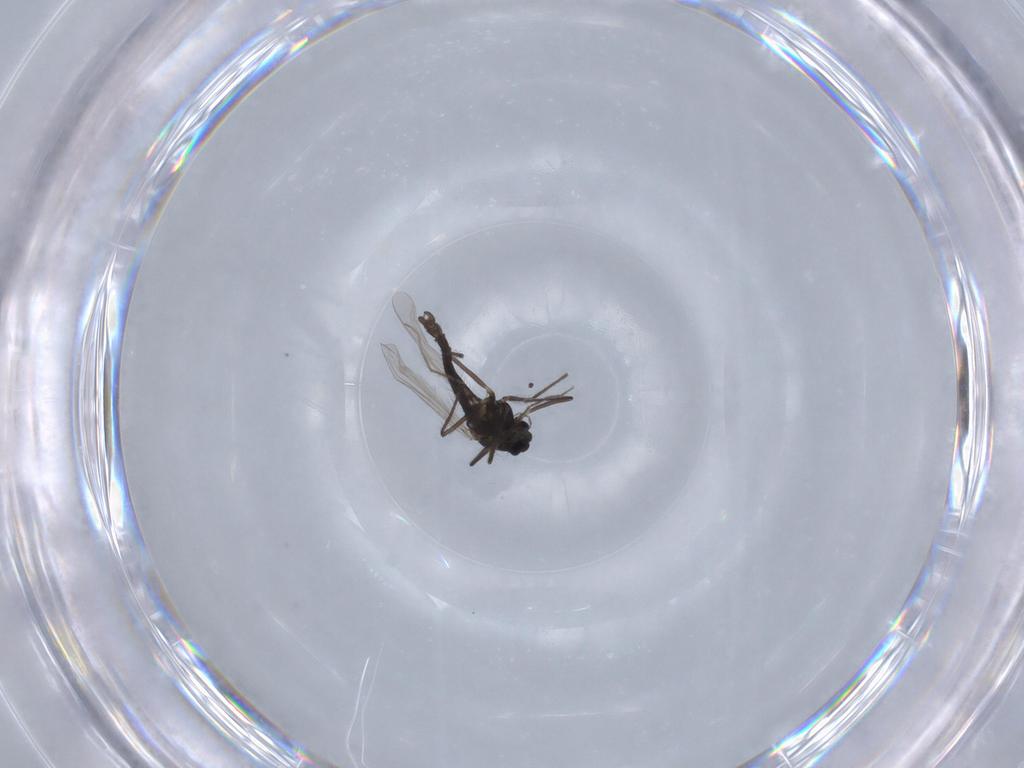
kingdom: Animalia
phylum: Arthropoda
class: Insecta
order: Diptera
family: Chironomidae
